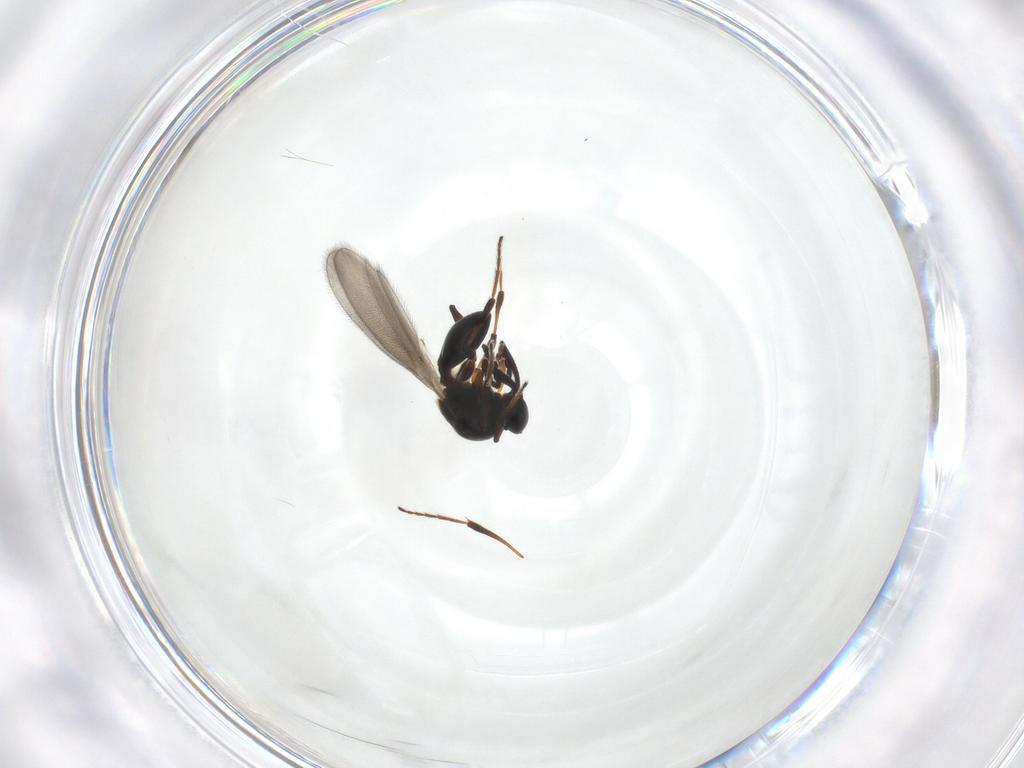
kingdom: Animalia
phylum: Arthropoda
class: Insecta
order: Hymenoptera
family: Platygastridae
